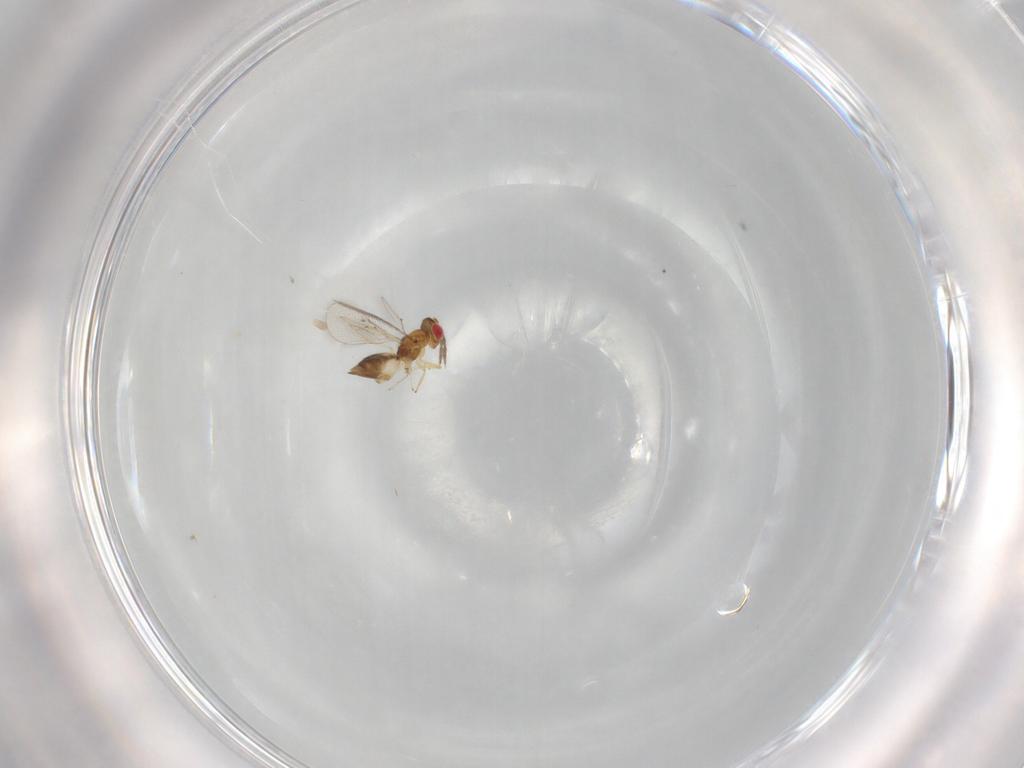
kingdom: Animalia
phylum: Arthropoda
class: Insecta
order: Hymenoptera
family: Eulophidae
